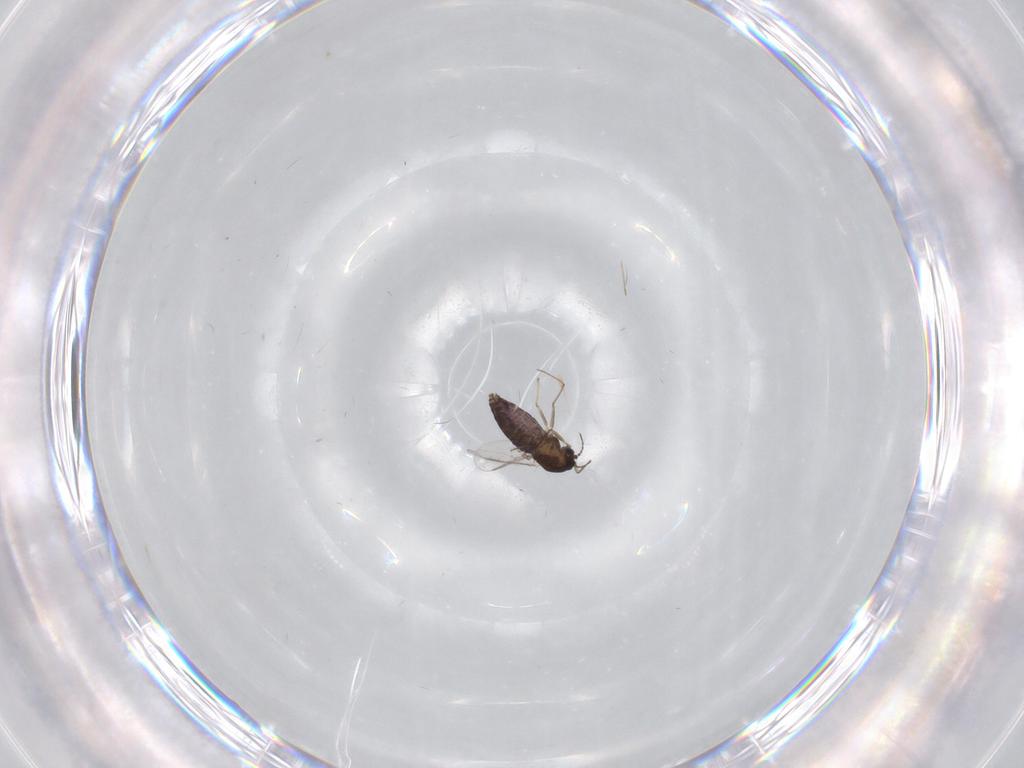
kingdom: Animalia
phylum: Arthropoda
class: Insecta
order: Diptera
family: Chironomidae
